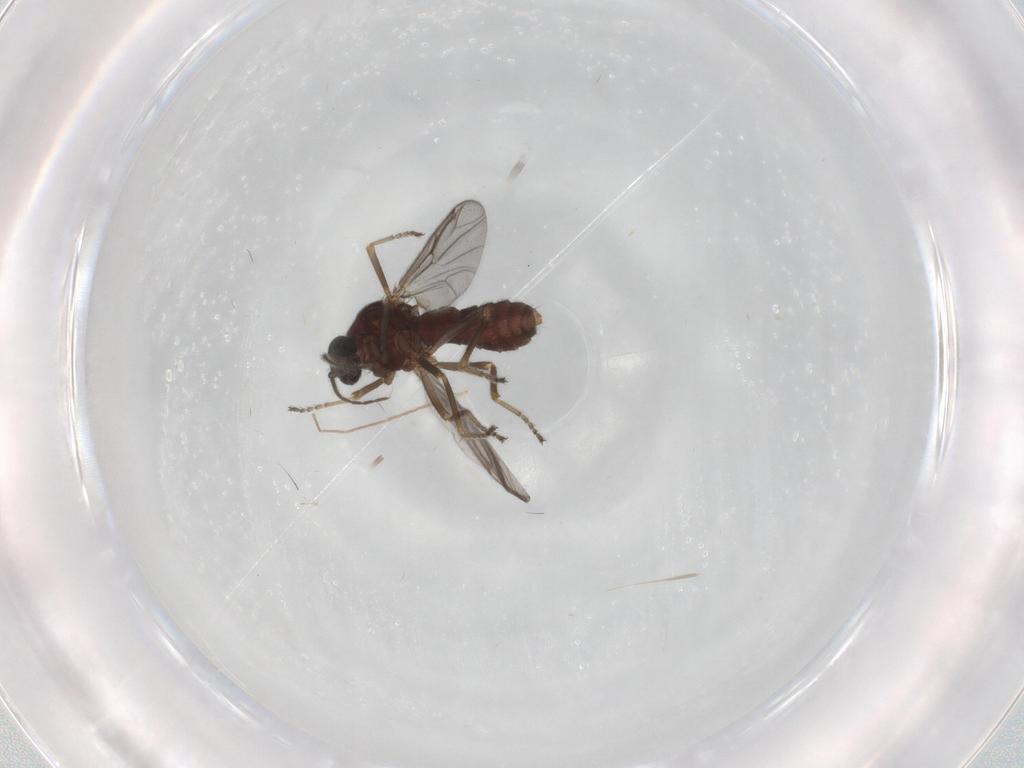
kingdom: Animalia
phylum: Arthropoda
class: Insecta
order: Diptera
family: Ceratopogonidae
